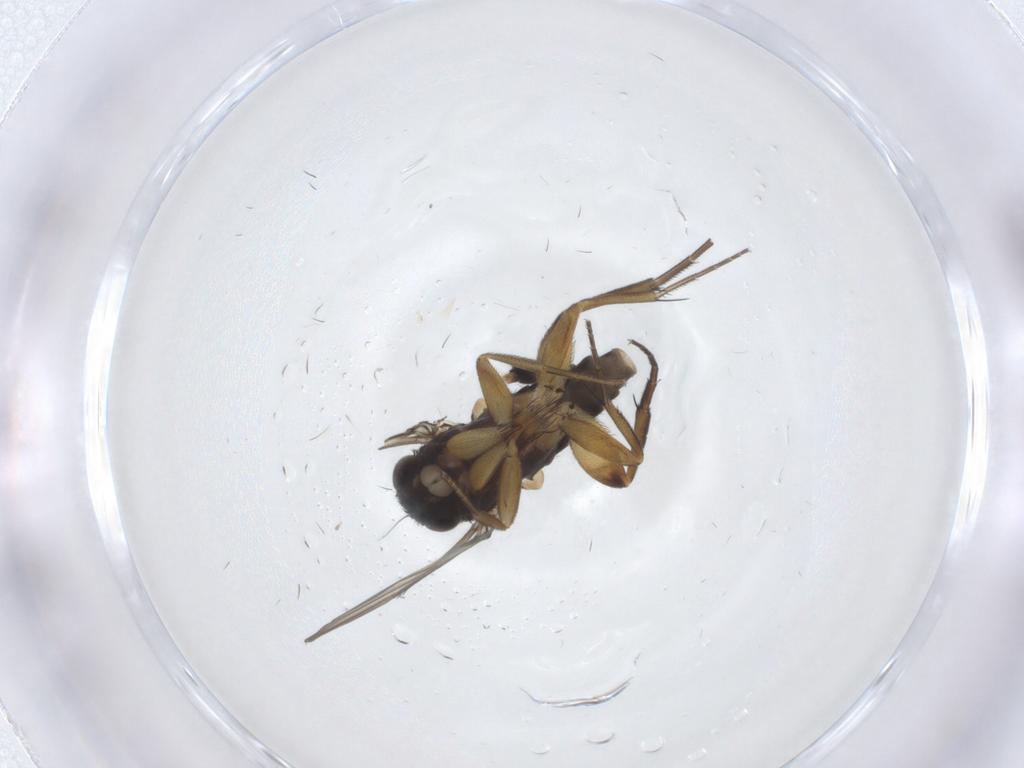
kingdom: Animalia
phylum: Arthropoda
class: Insecta
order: Diptera
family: Phoridae
